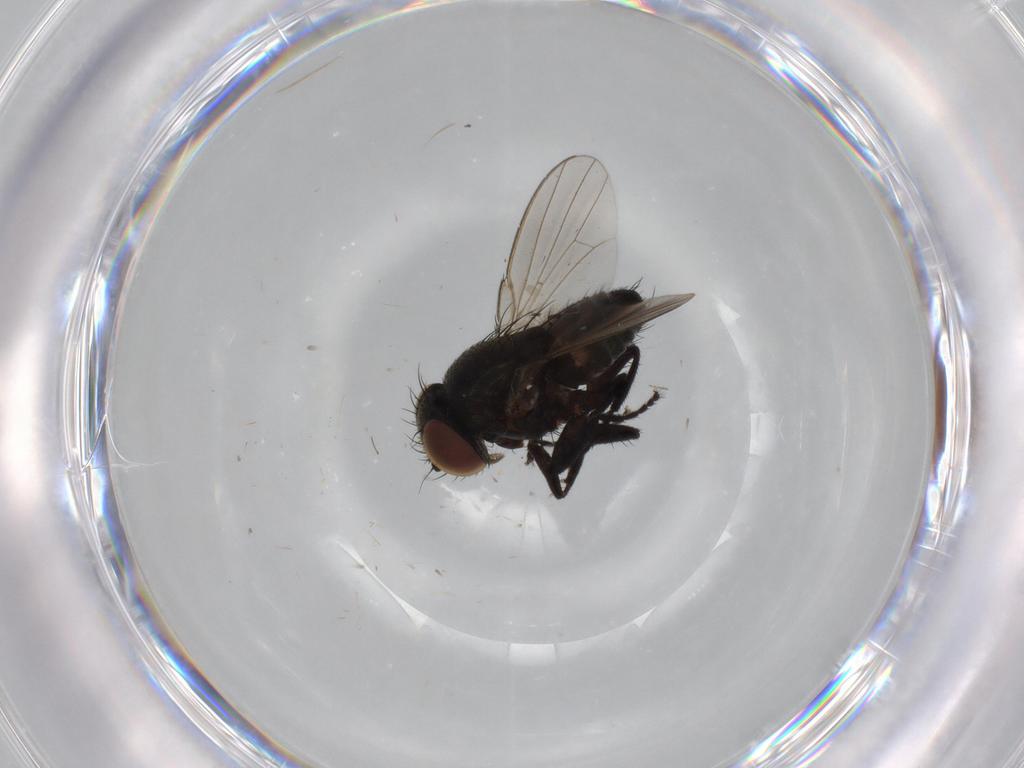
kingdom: Animalia
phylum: Arthropoda
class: Insecta
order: Diptera
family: Milichiidae
